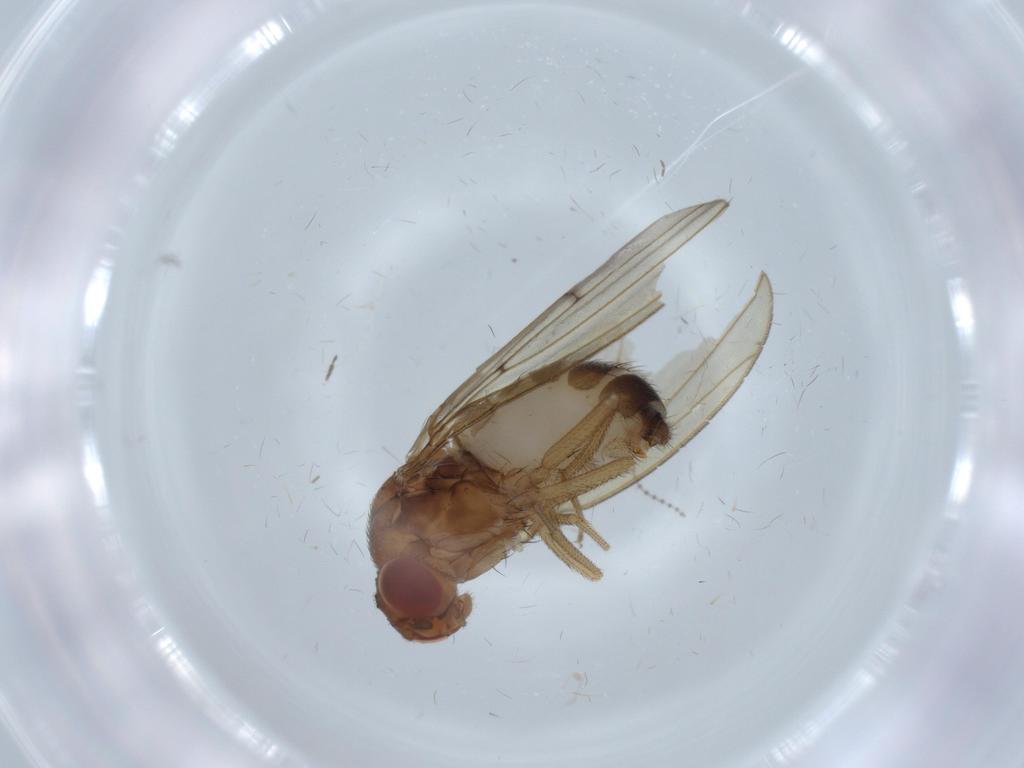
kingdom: Animalia
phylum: Arthropoda
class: Insecta
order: Diptera
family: Drosophilidae
